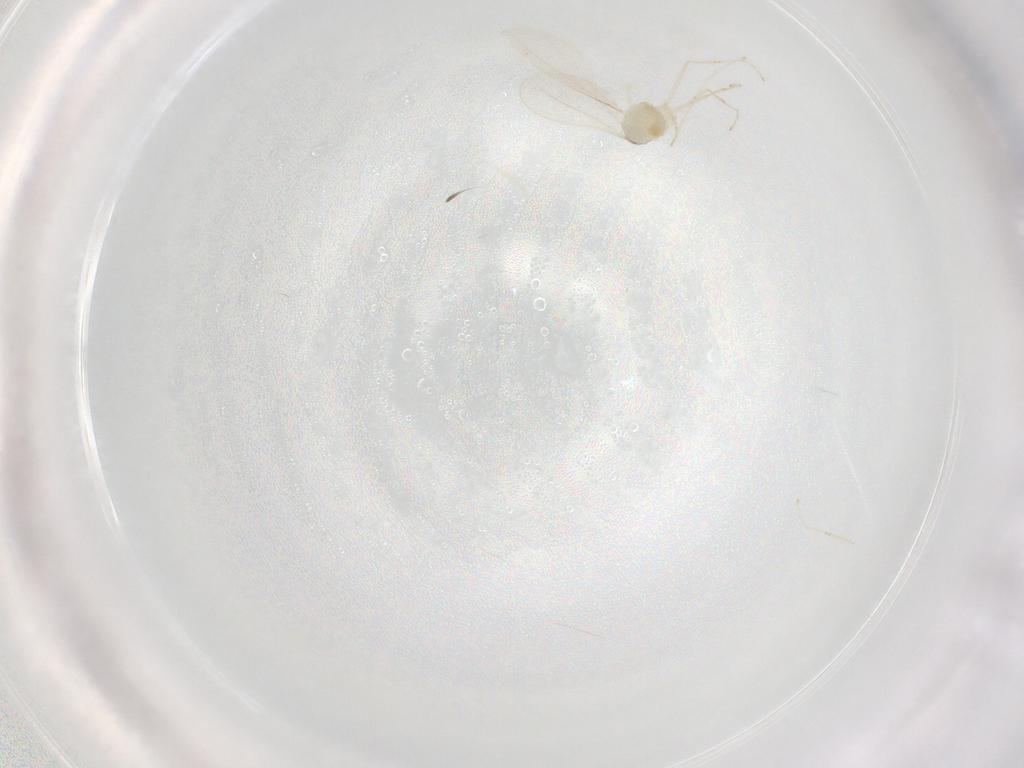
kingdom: Animalia
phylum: Arthropoda
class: Insecta
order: Diptera
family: Cecidomyiidae
